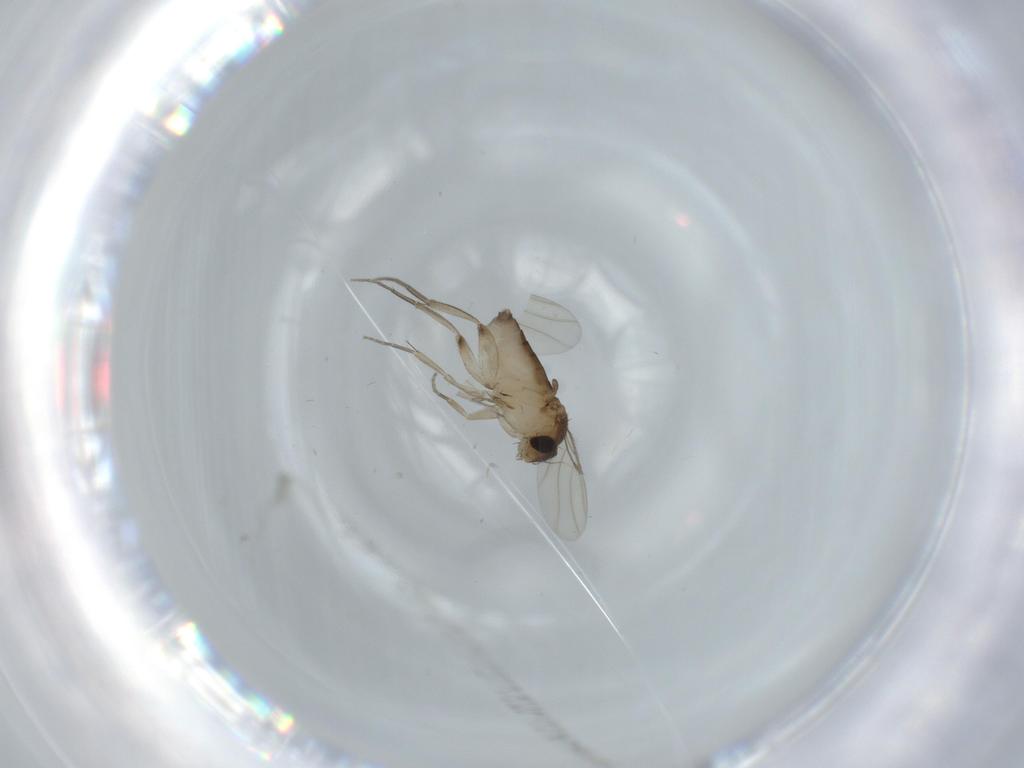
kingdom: Animalia
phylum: Arthropoda
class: Insecta
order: Diptera
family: Phoridae
